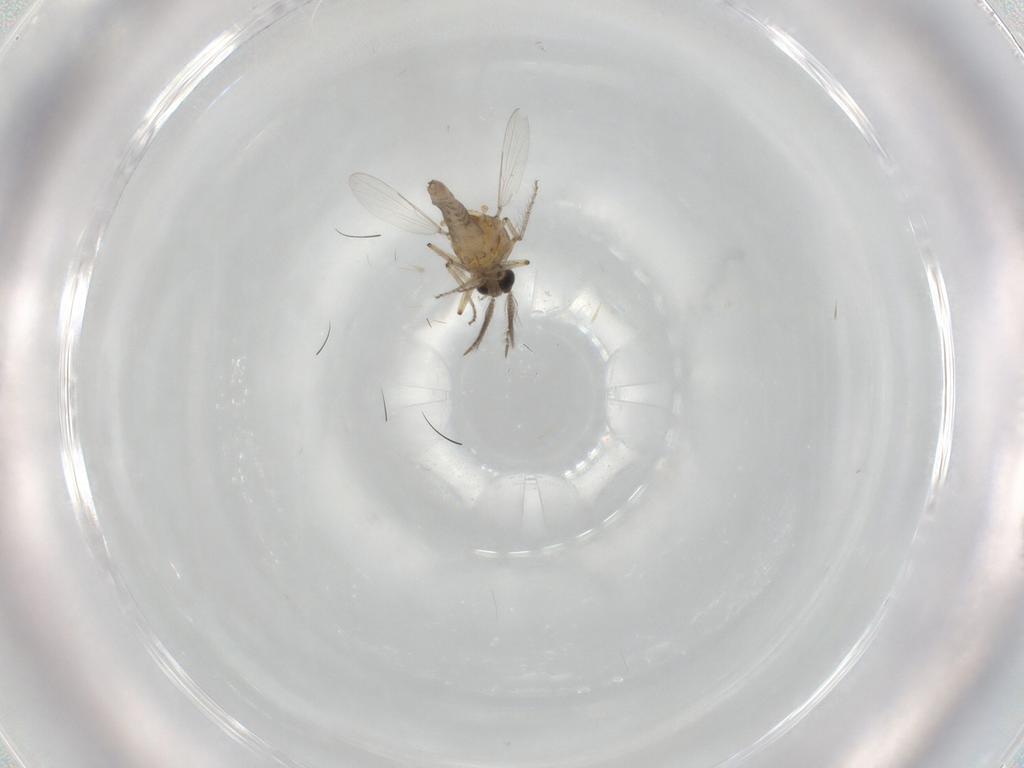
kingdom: Animalia
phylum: Arthropoda
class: Insecta
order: Diptera
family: Ceratopogonidae
